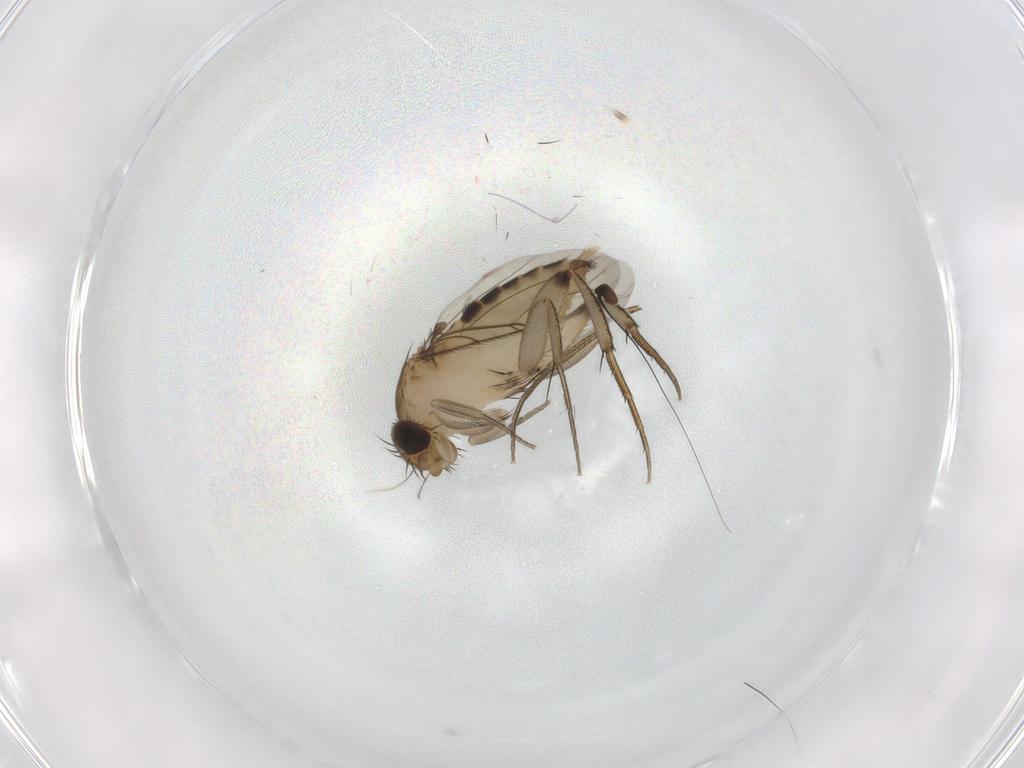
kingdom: Animalia
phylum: Arthropoda
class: Insecta
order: Diptera
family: Phoridae
